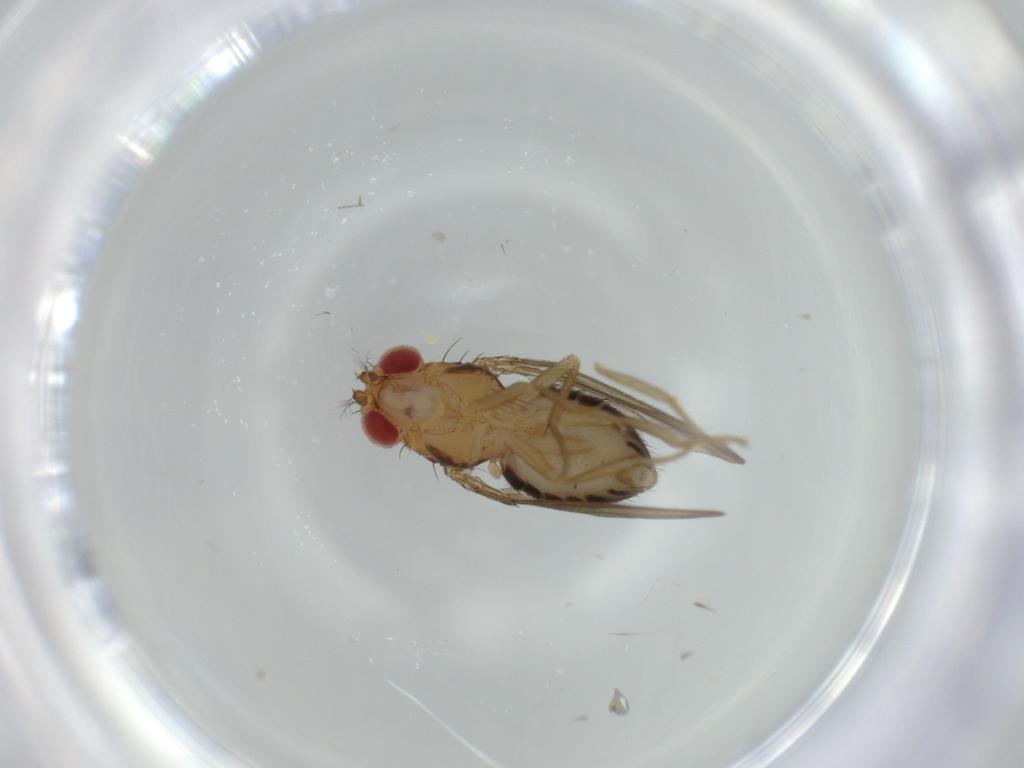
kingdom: Animalia
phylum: Arthropoda
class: Insecta
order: Diptera
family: Drosophilidae
